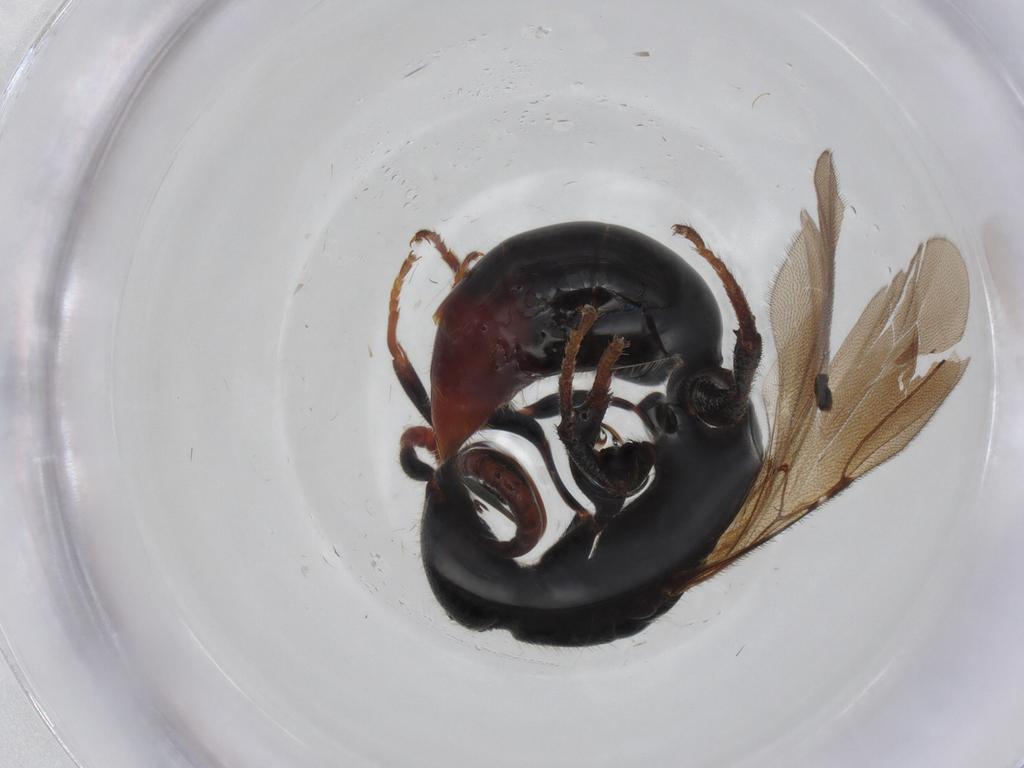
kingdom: Animalia
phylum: Arthropoda
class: Insecta
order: Hymenoptera
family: Bethylidae
